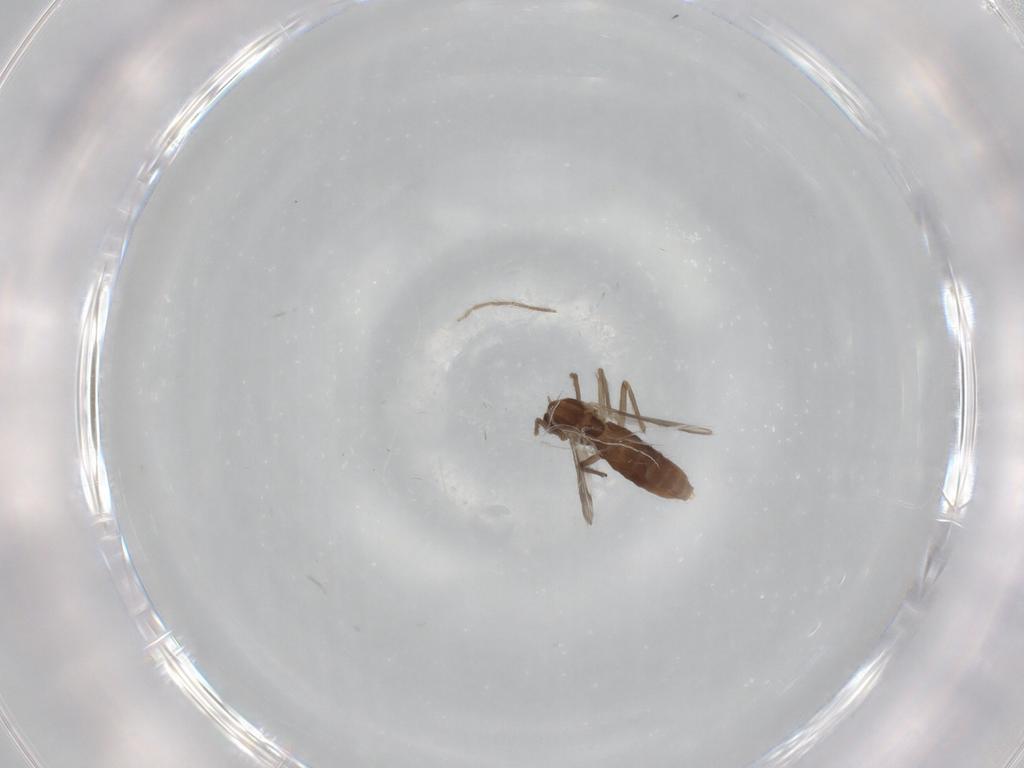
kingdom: Animalia
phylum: Arthropoda
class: Insecta
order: Diptera
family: Chironomidae
